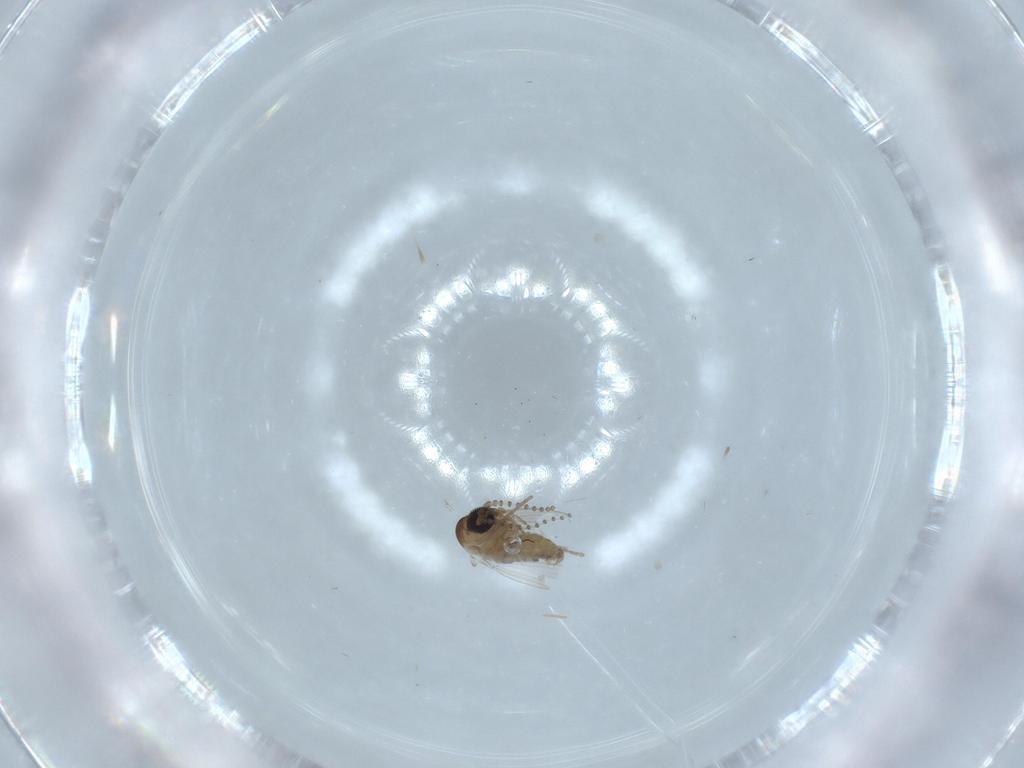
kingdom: Animalia
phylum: Arthropoda
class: Insecta
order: Diptera
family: Psychodidae
